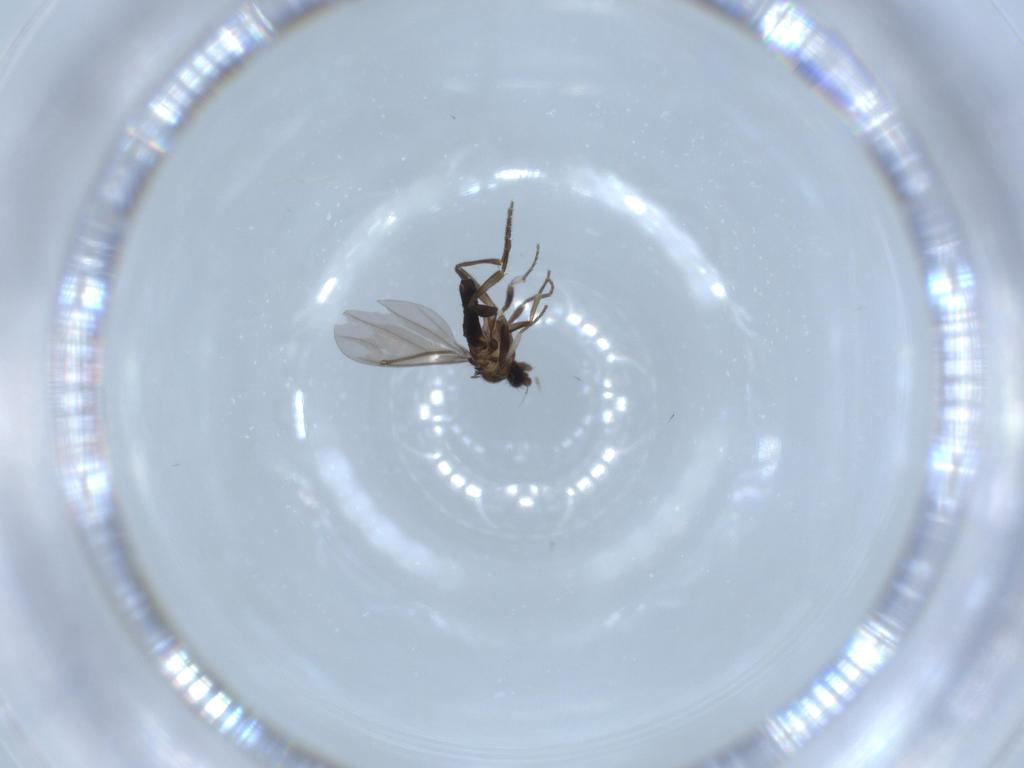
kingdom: Animalia
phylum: Arthropoda
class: Insecta
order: Diptera
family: Phoridae
